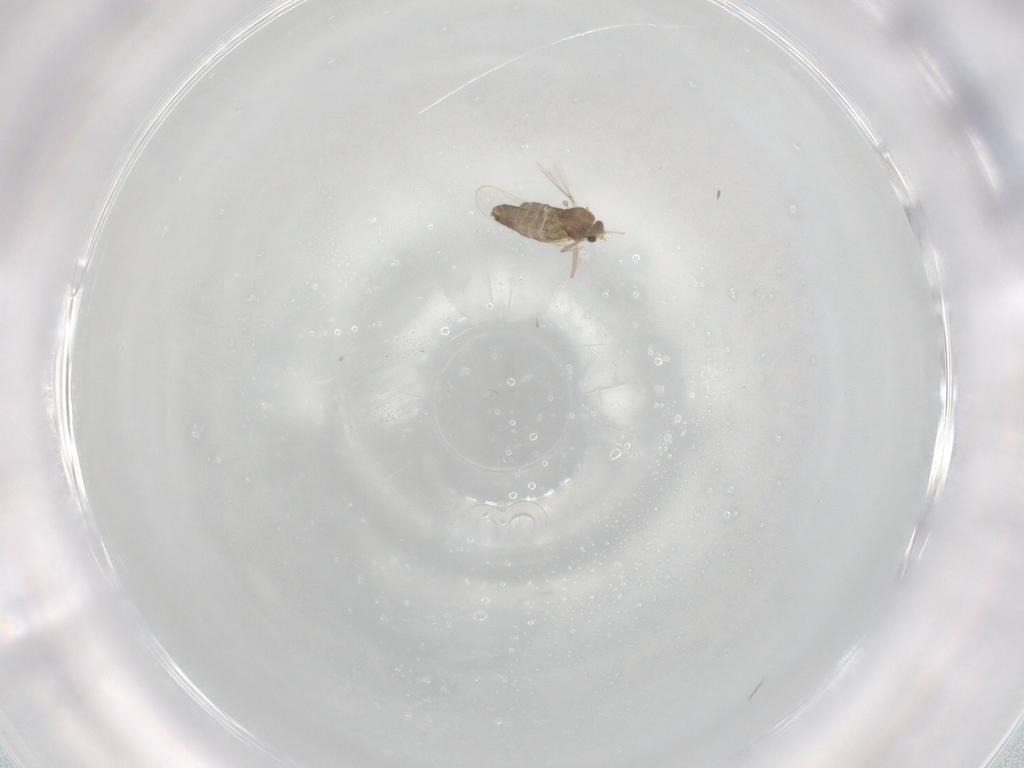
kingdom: Animalia
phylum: Arthropoda
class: Insecta
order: Diptera
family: Chironomidae
